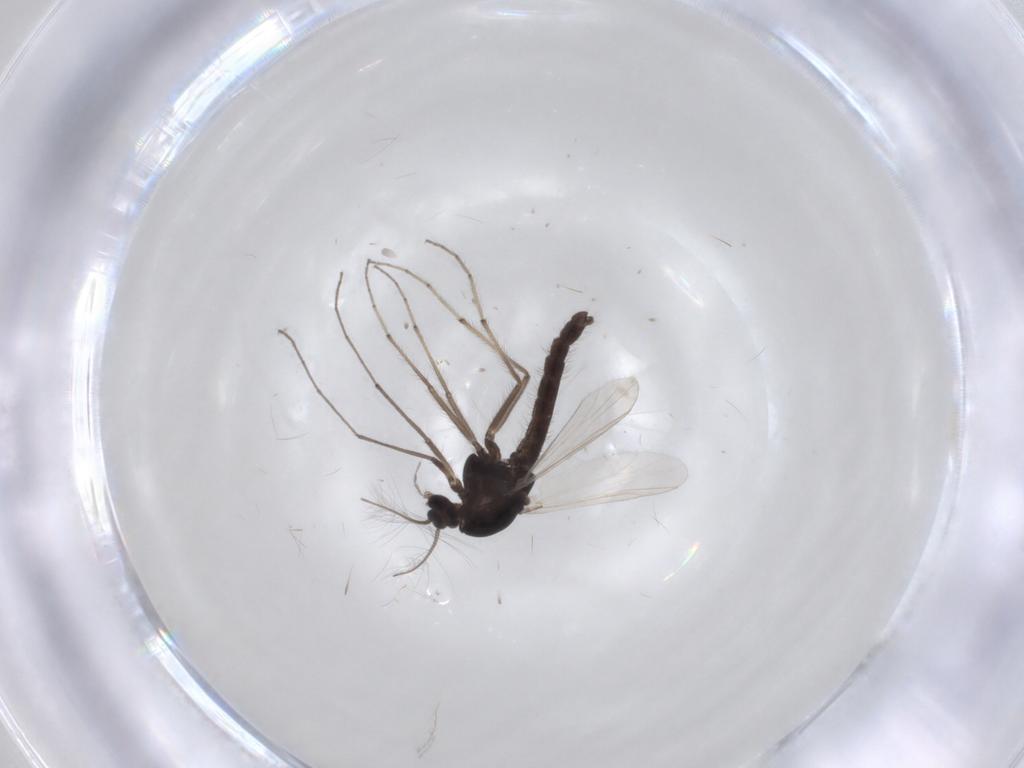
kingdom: Animalia
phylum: Arthropoda
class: Insecta
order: Diptera
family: Chironomidae
